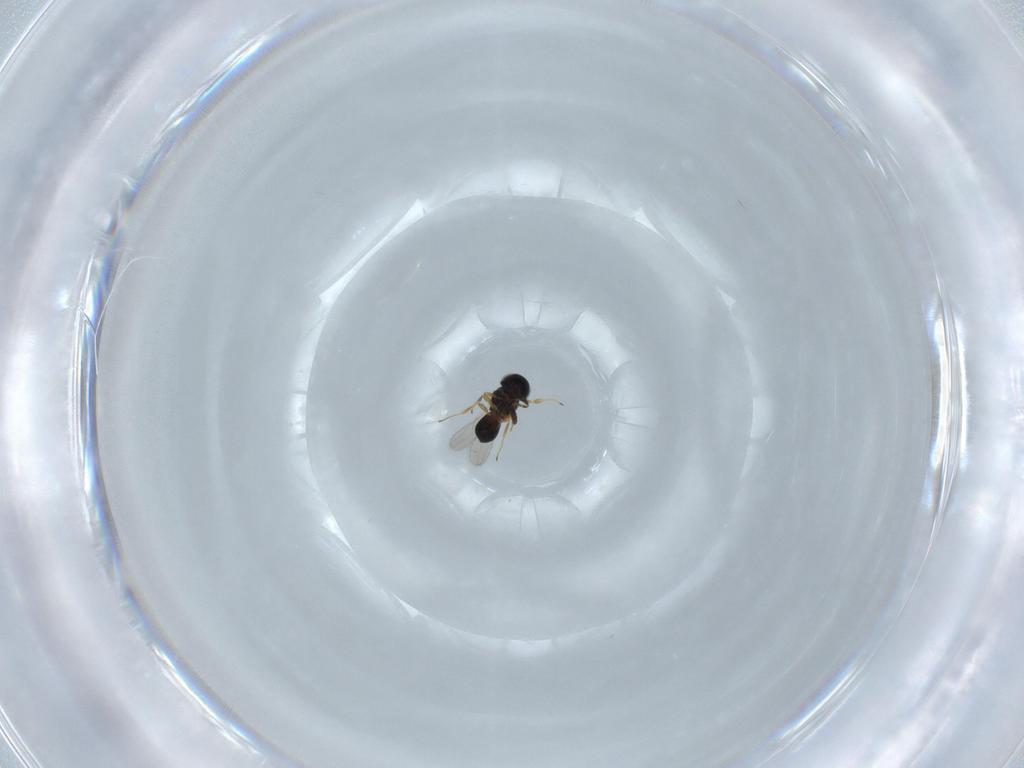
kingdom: Animalia
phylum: Arthropoda
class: Insecta
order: Hymenoptera
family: Scelionidae
